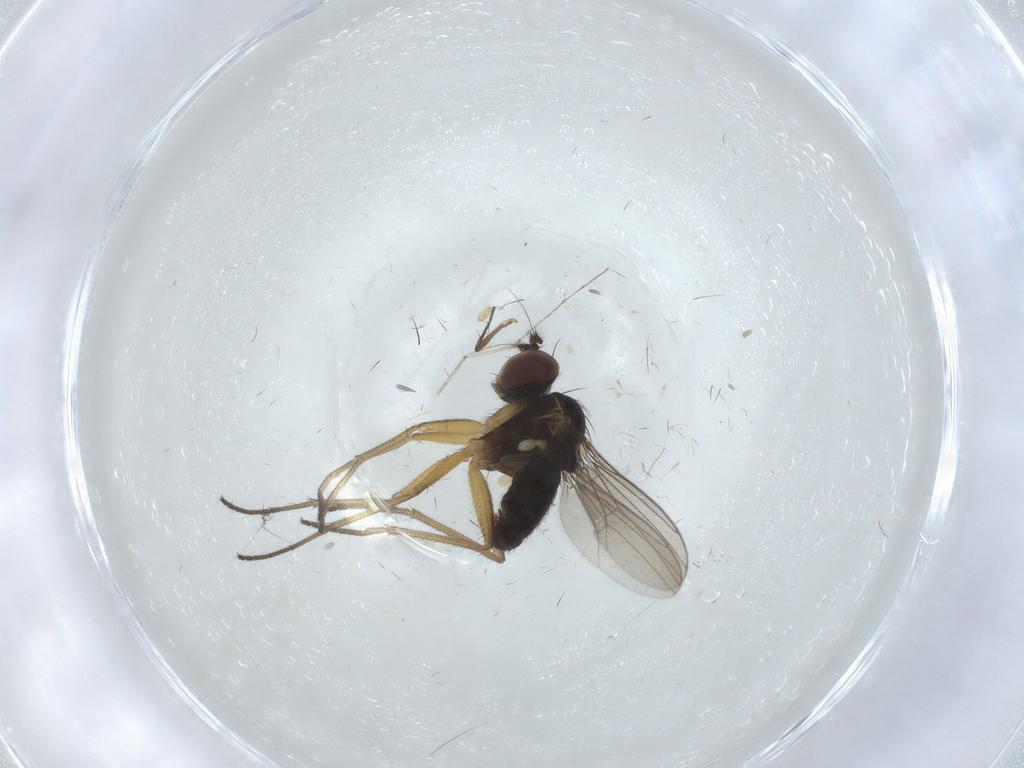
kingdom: Animalia
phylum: Arthropoda
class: Insecta
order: Diptera
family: Dolichopodidae
